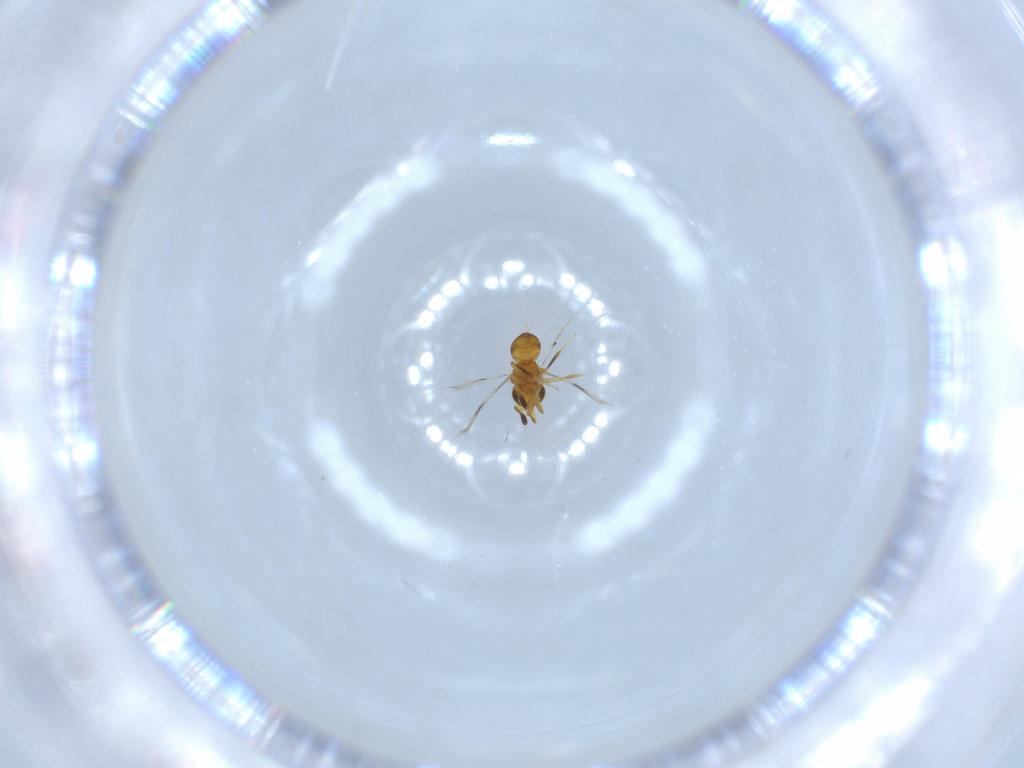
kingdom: Animalia
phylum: Arthropoda
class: Insecta
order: Hymenoptera
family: Scelionidae
